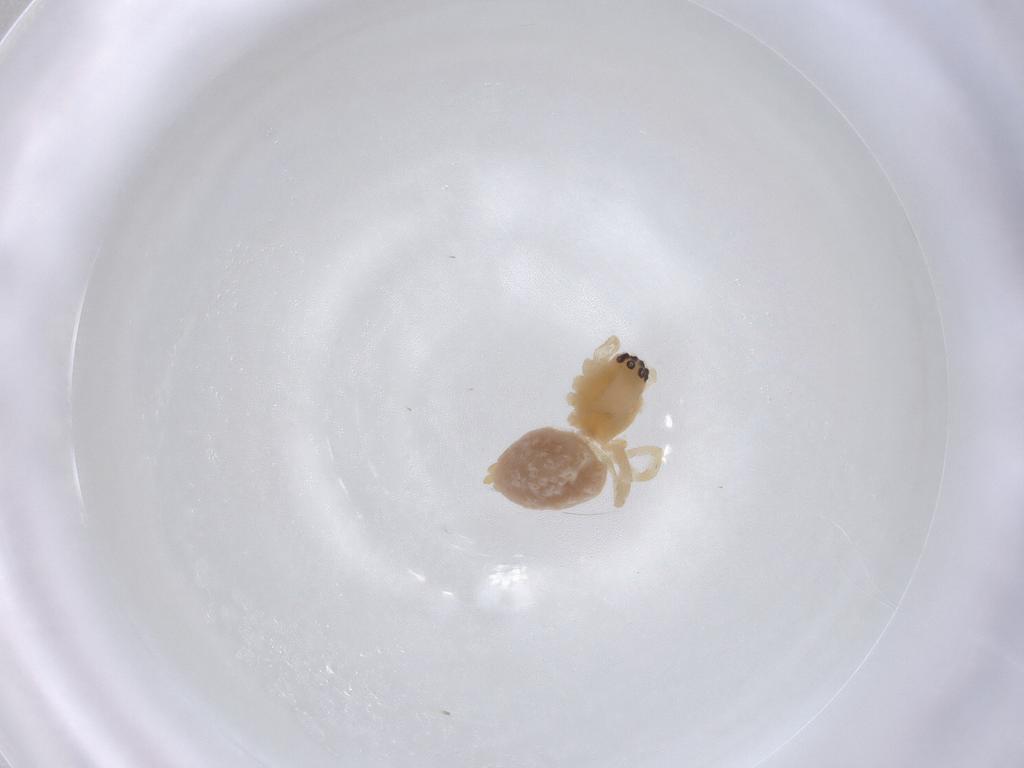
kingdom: Animalia
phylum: Arthropoda
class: Arachnida
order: Araneae
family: Cheiracanthiidae
